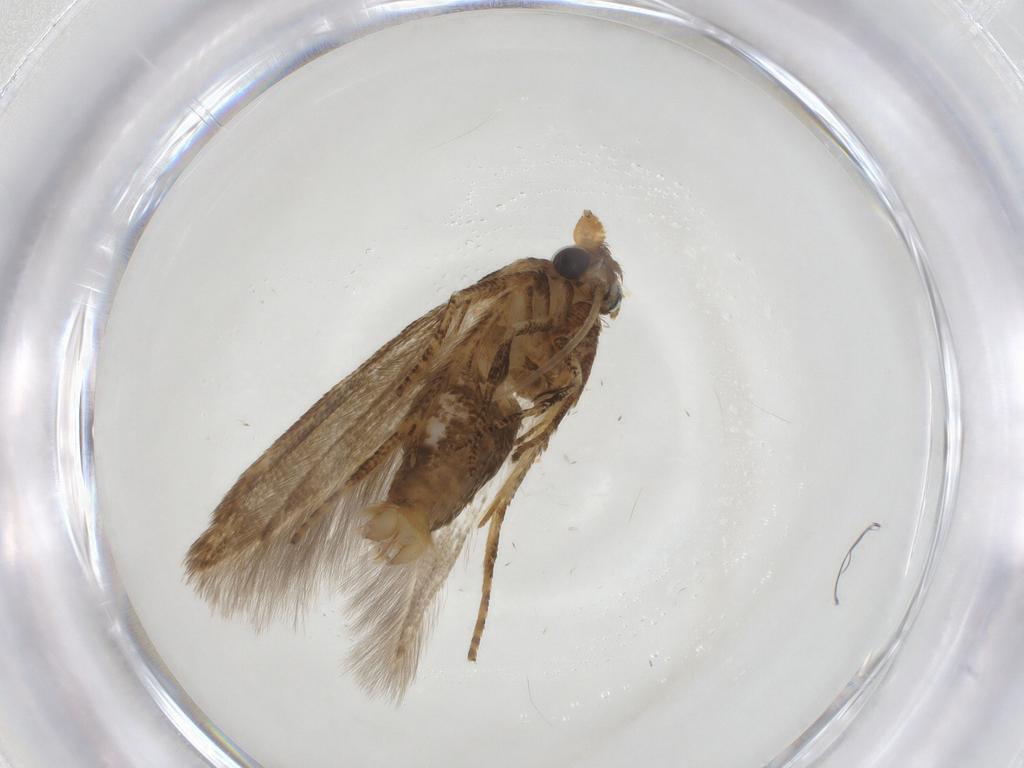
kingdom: Animalia
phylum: Arthropoda
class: Insecta
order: Lepidoptera
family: Blastobasidae
